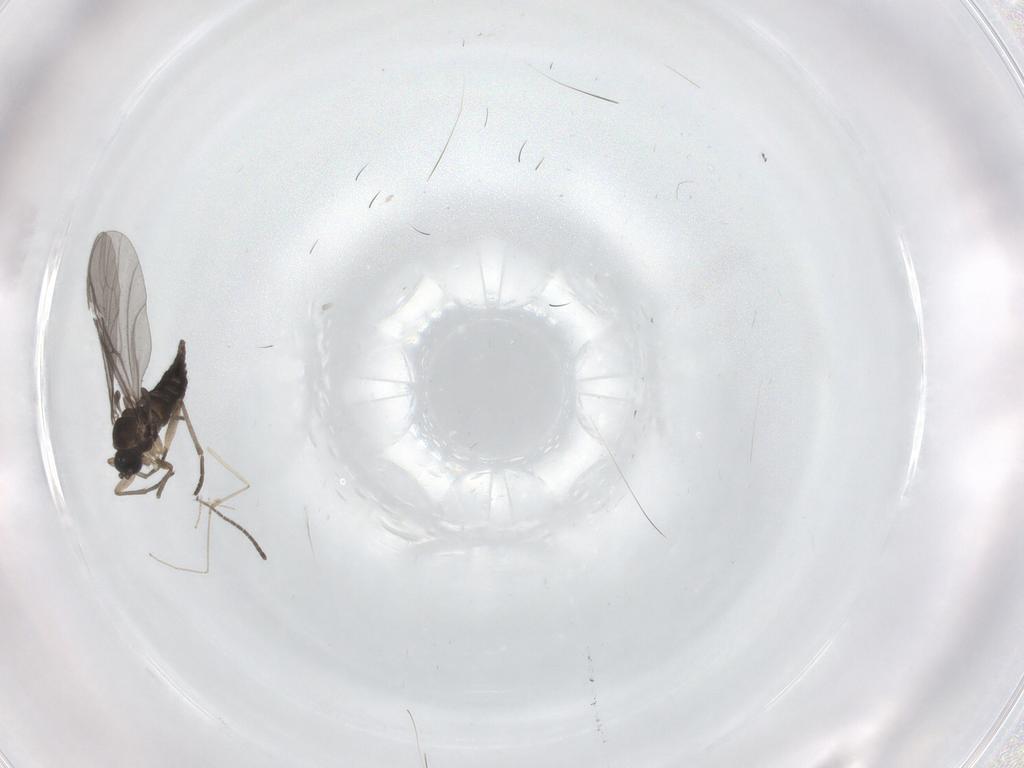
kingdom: Animalia
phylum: Arthropoda
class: Insecta
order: Diptera
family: Sciaridae
